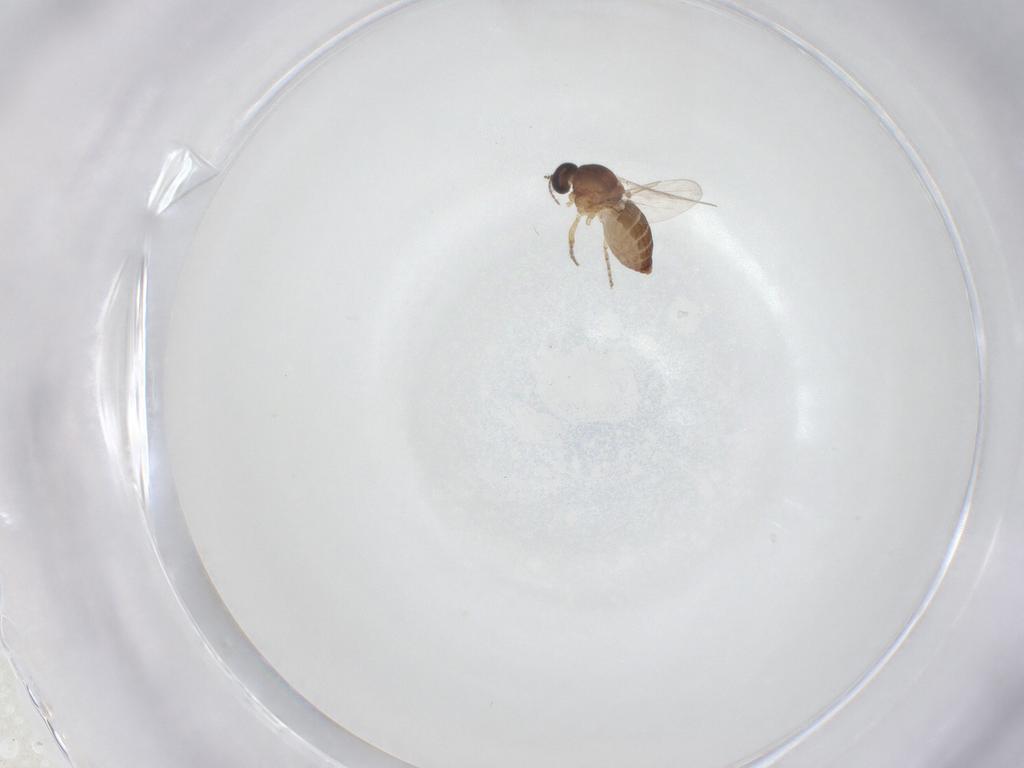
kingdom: Animalia
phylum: Arthropoda
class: Insecta
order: Diptera
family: Ceratopogonidae
